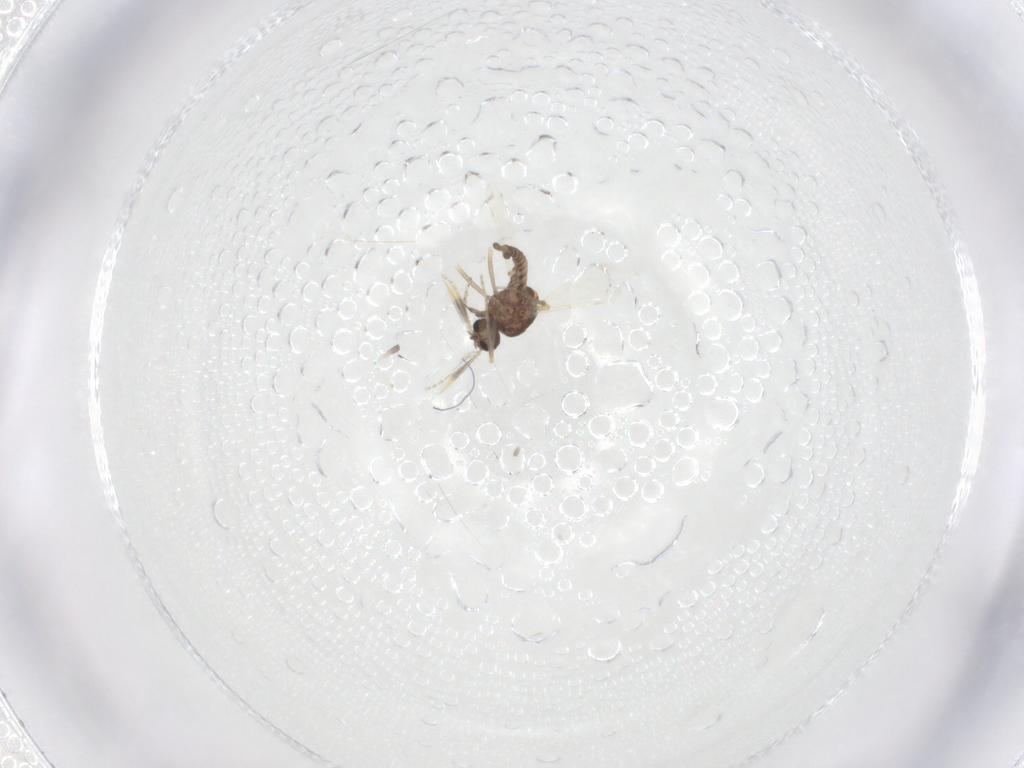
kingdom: Animalia
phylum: Arthropoda
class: Insecta
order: Diptera
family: Ceratopogonidae
